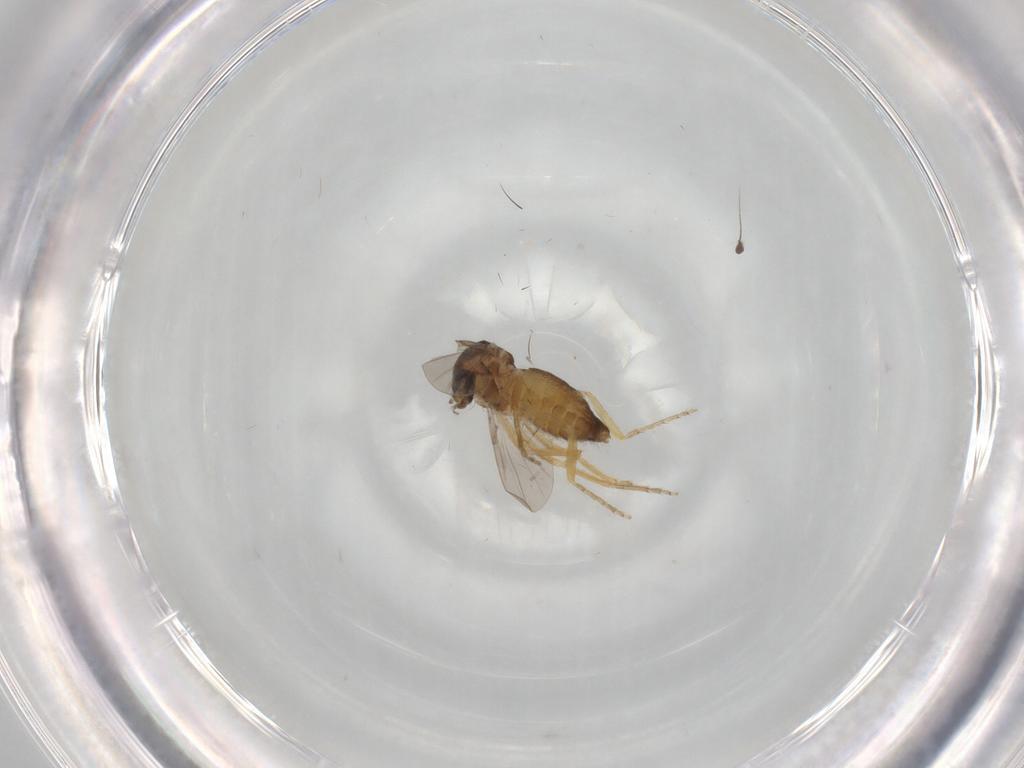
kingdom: Animalia
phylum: Arthropoda
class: Insecta
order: Diptera
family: Ceratopogonidae
